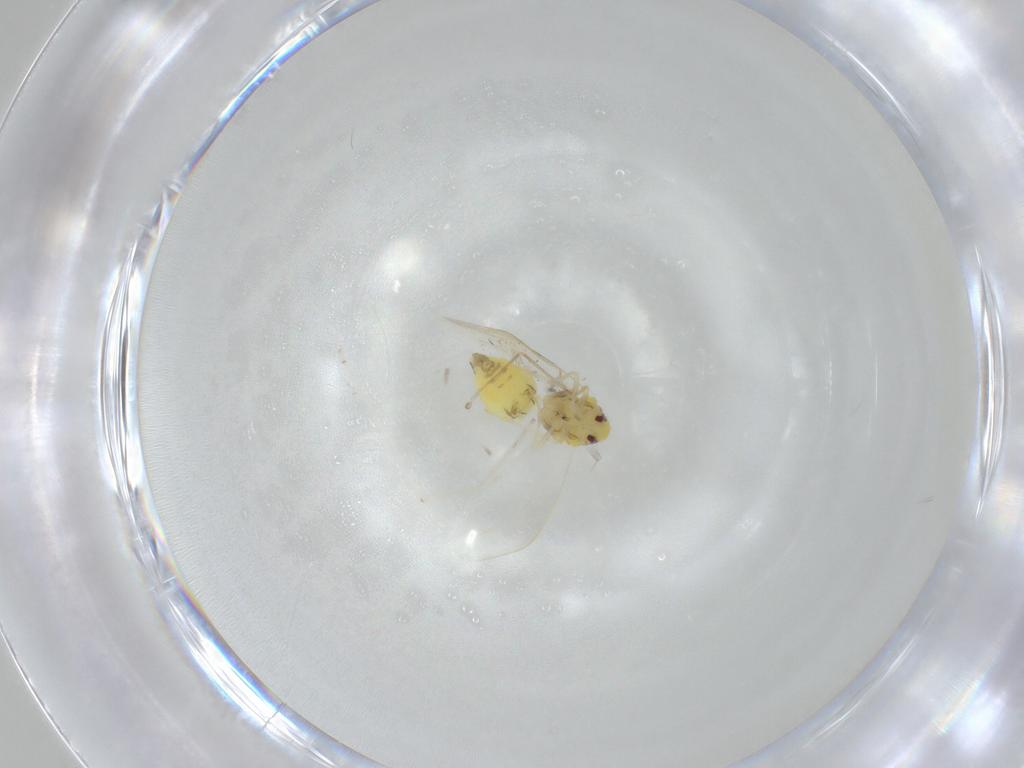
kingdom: Animalia
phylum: Arthropoda
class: Insecta
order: Hemiptera
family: Aleyrodidae
